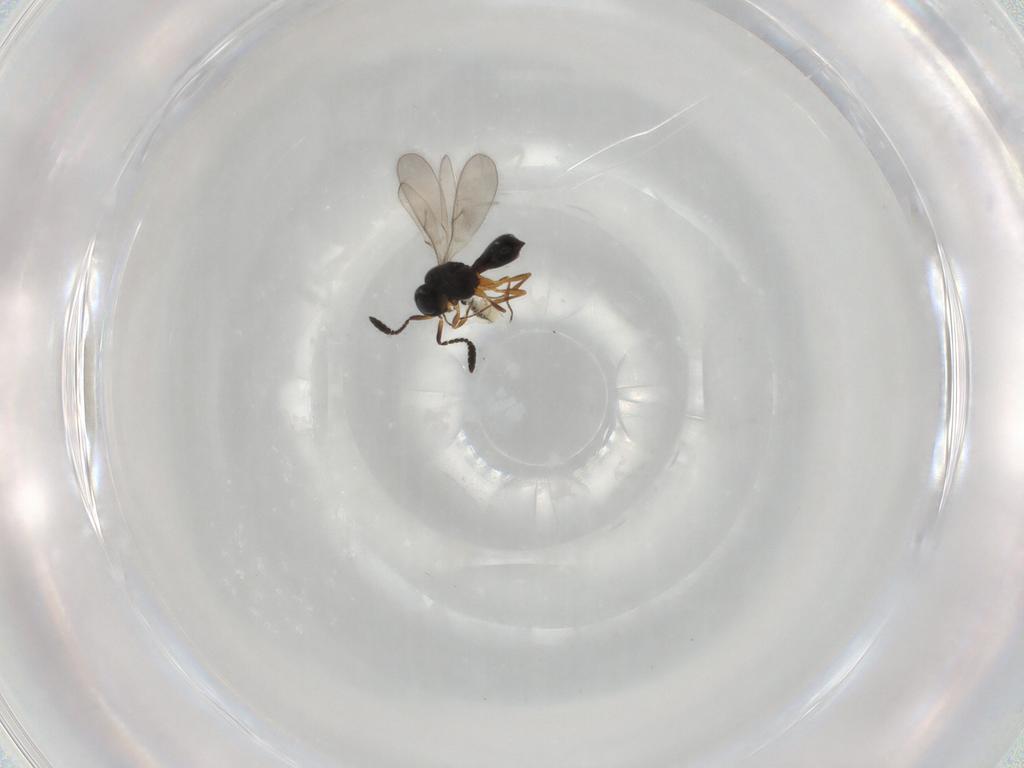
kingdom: Animalia
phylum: Arthropoda
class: Insecta
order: Hymenoptera
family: Scelionidae
